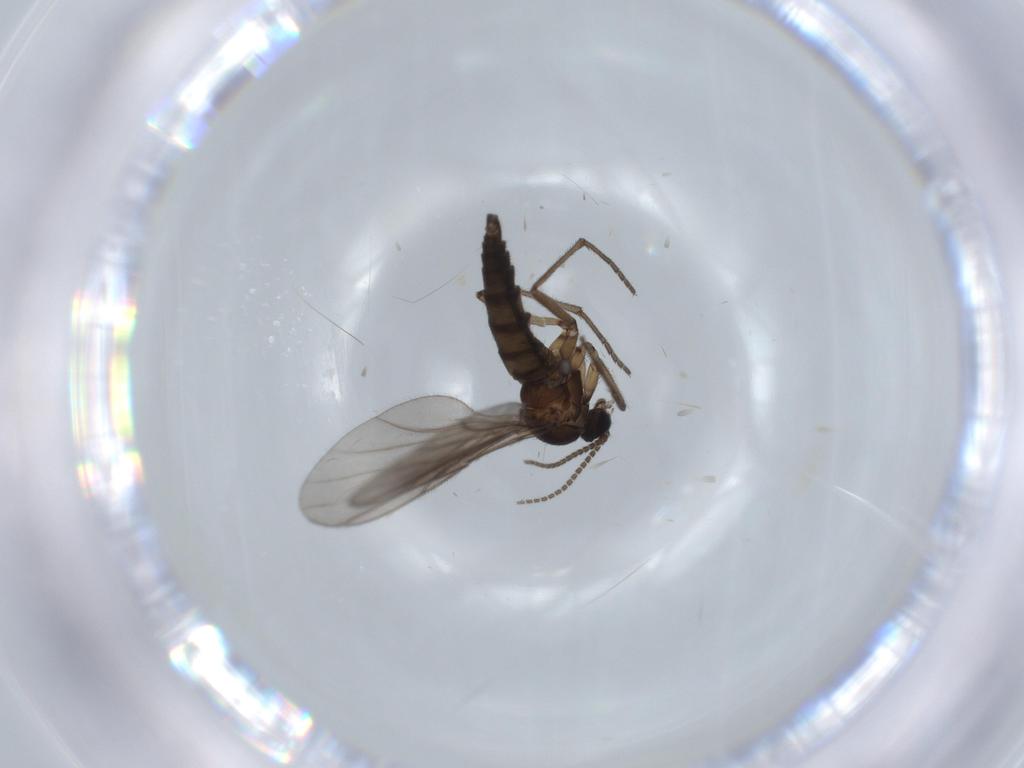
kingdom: Animalia
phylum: Arthropoda
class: Insecta
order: Diptera
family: Sciaridae
